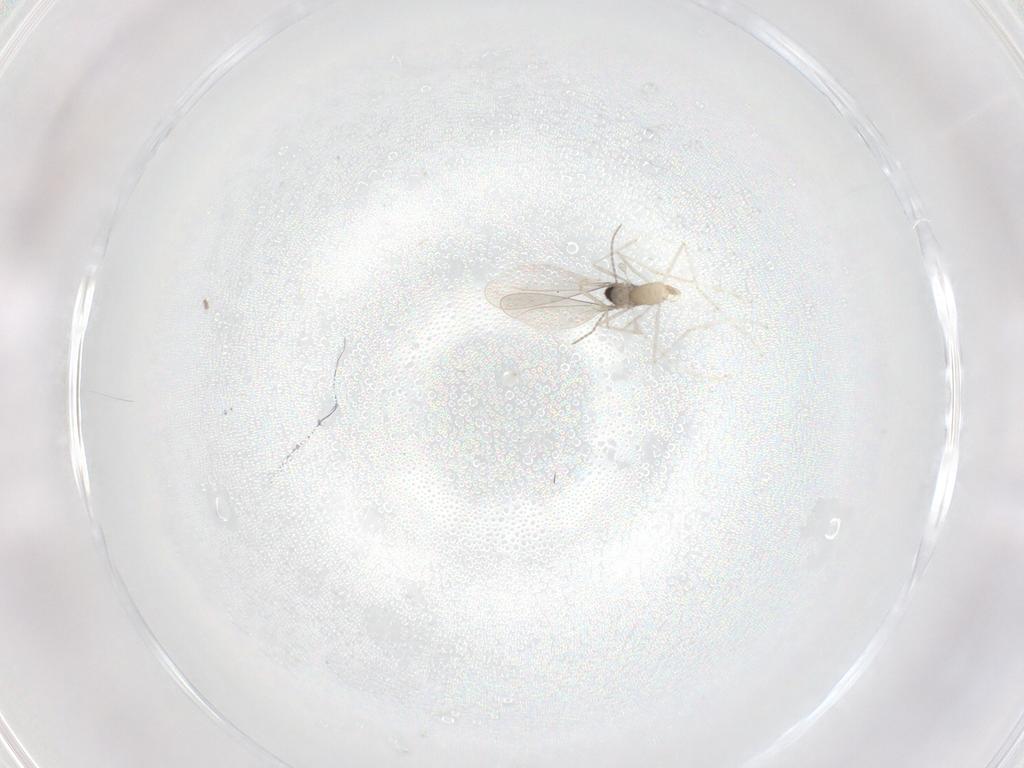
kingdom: Animalia
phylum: Arthropoda
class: Insecta
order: Diptera
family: Cecidomyiidae
